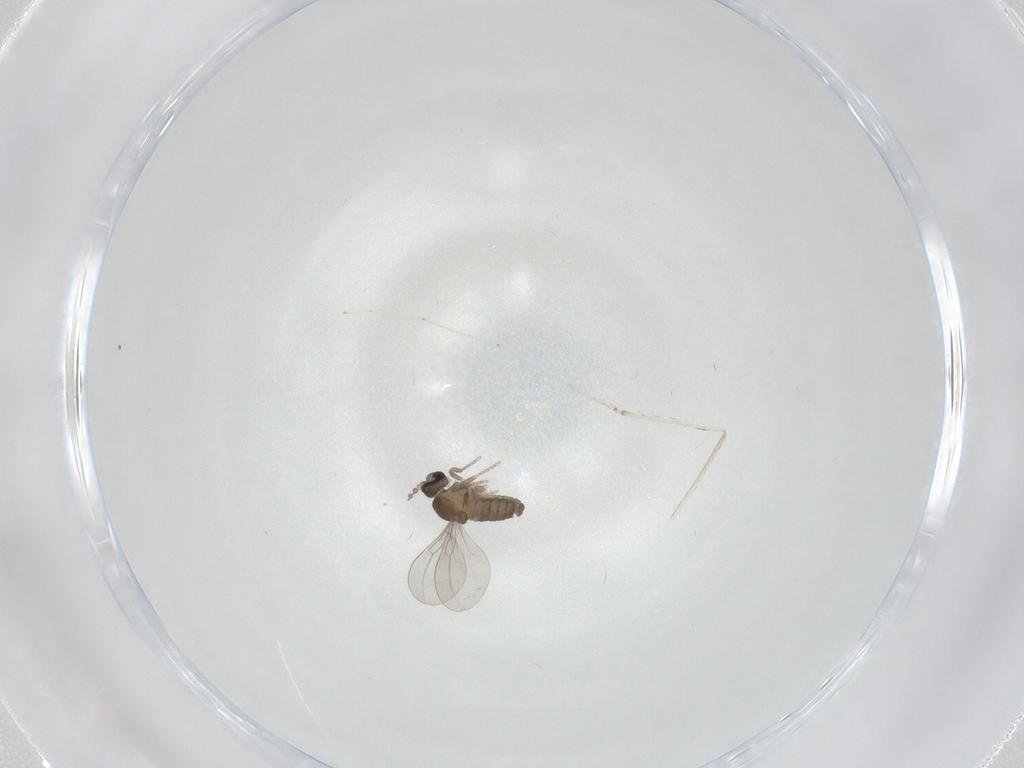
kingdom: Animalia
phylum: Arthropoda
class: Insecta
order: Diptera
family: Cecidomyiidae
